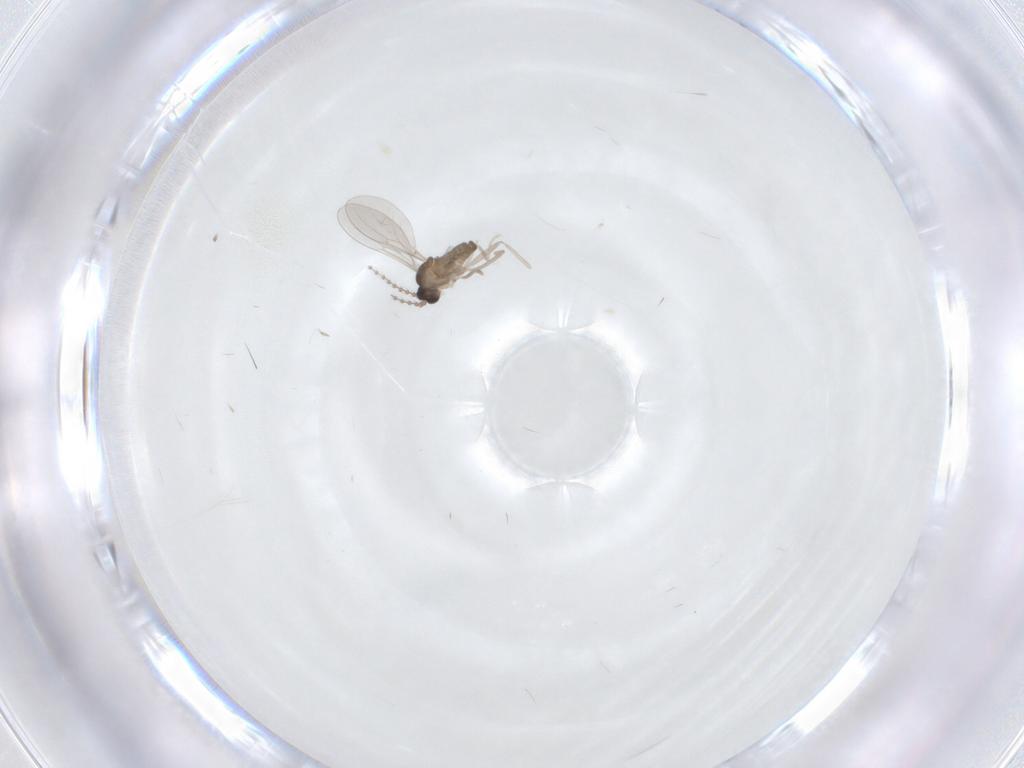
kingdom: Animalia
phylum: Arthropoda
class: Insecta
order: Diptera
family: Cecidomyiidae
